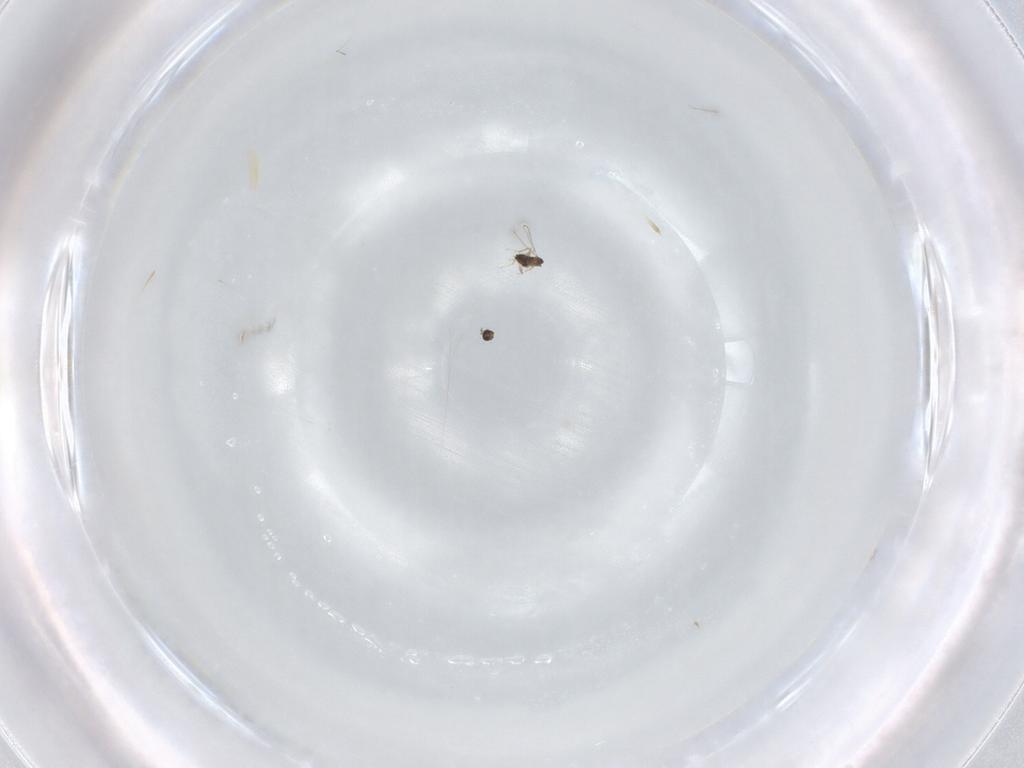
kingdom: Animalia
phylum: Arthropoda
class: Insecta
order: Hymenoptera
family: Mymaridae
